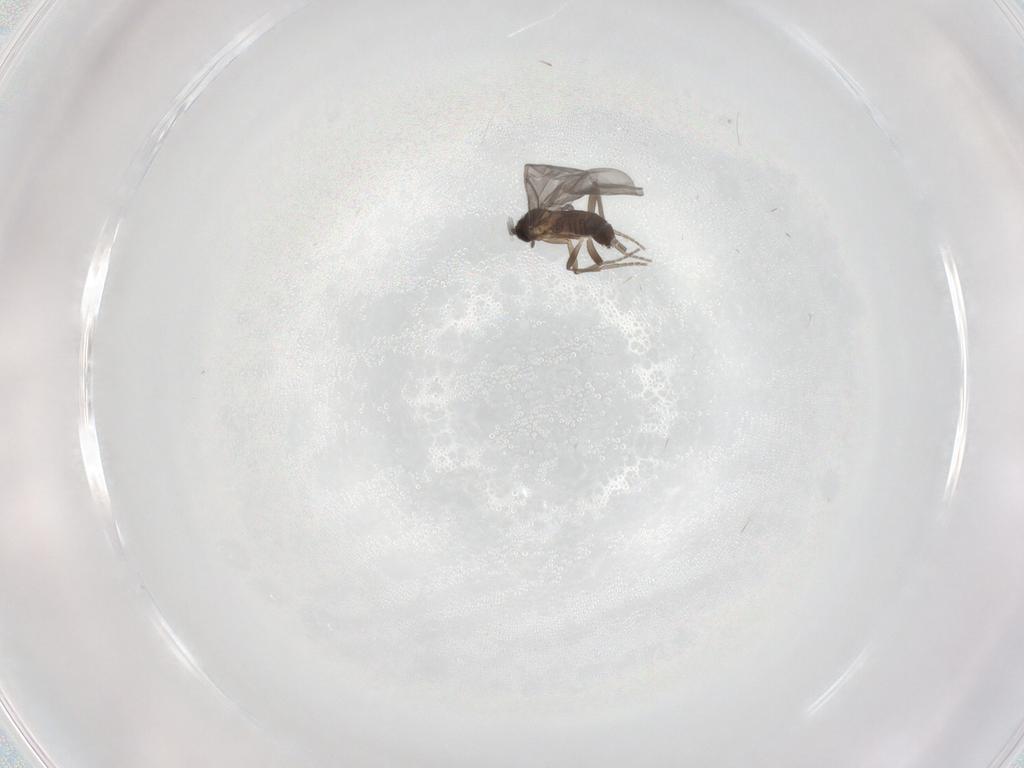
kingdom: Animalia
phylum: Arthropoda
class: Insecta
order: Diptera
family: Phoridae
